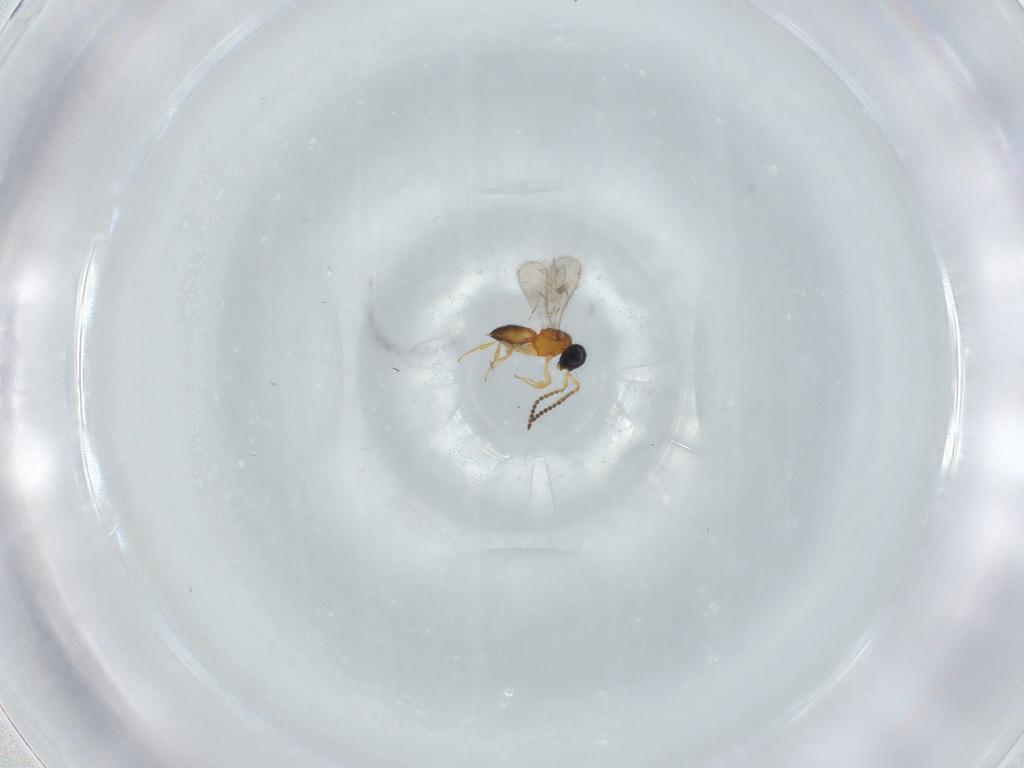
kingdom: Animalia
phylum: Arthropoda
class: Insecta
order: Hymenoptera
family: Scelionidae
